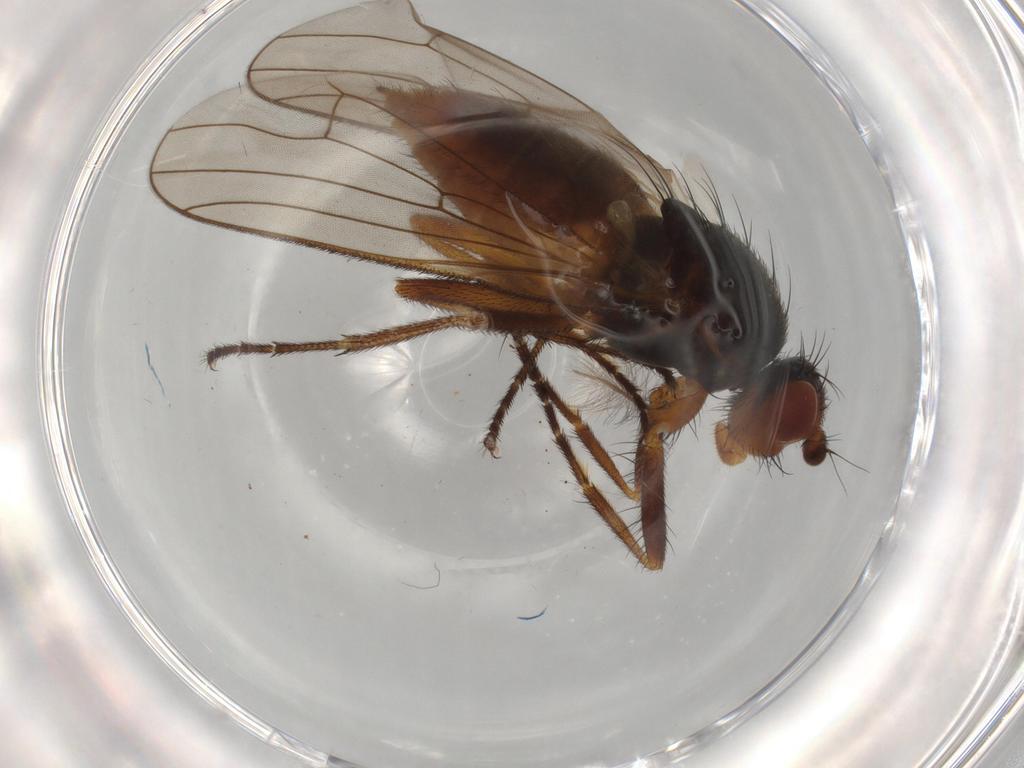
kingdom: Animalia
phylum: Arthropoda
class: Insecta
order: Diptera
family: Heleomyzidae
